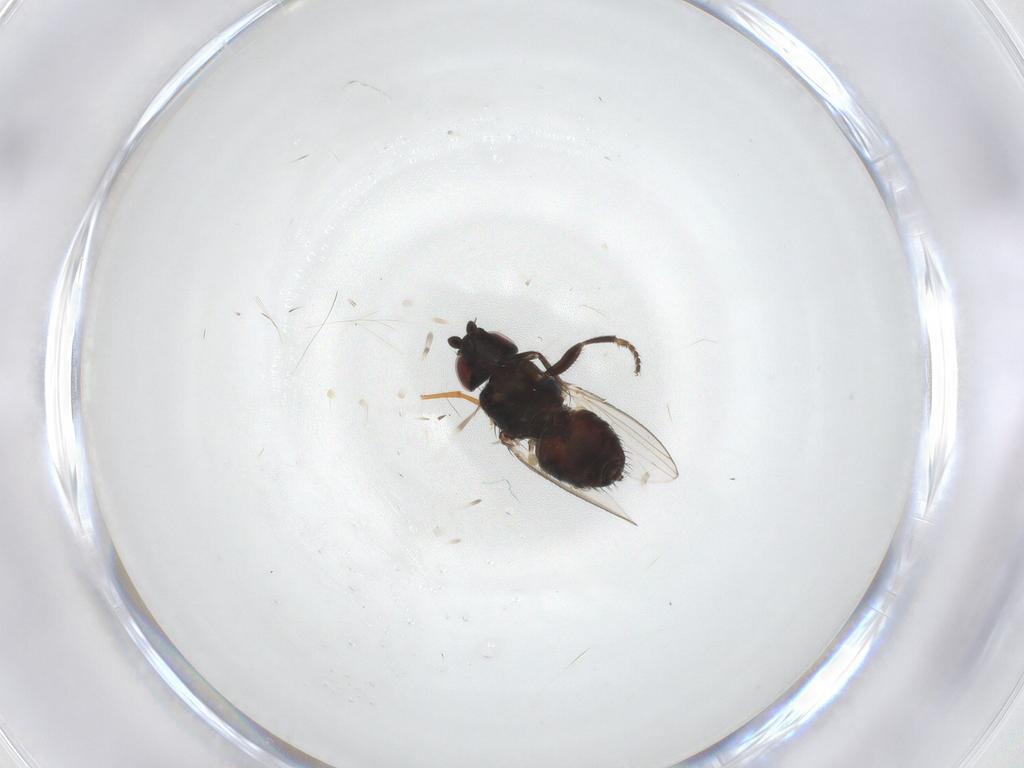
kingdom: Animalia
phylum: Arthropoda
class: Insecta
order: Diptera
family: Milichiidae
